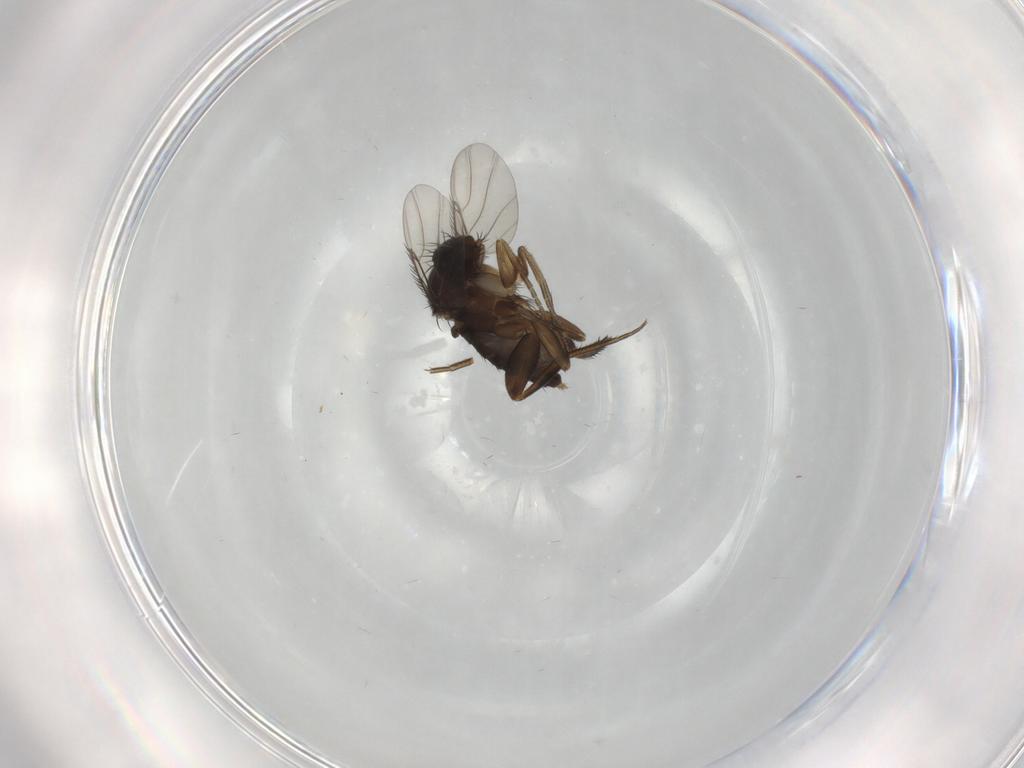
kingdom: Animalia
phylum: Arthropoda
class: Insecta
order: Diptera
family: Phoridae
